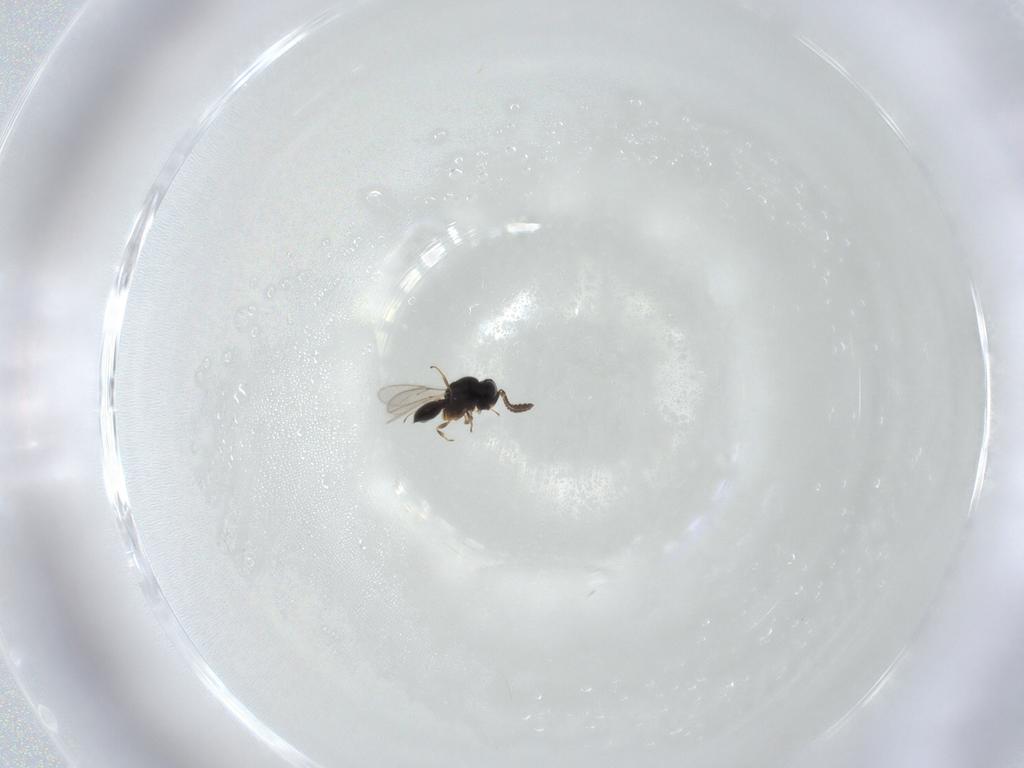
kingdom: Animalia
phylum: Arthropoda
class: Insecta
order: Hymenoptera
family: Scelionidae
